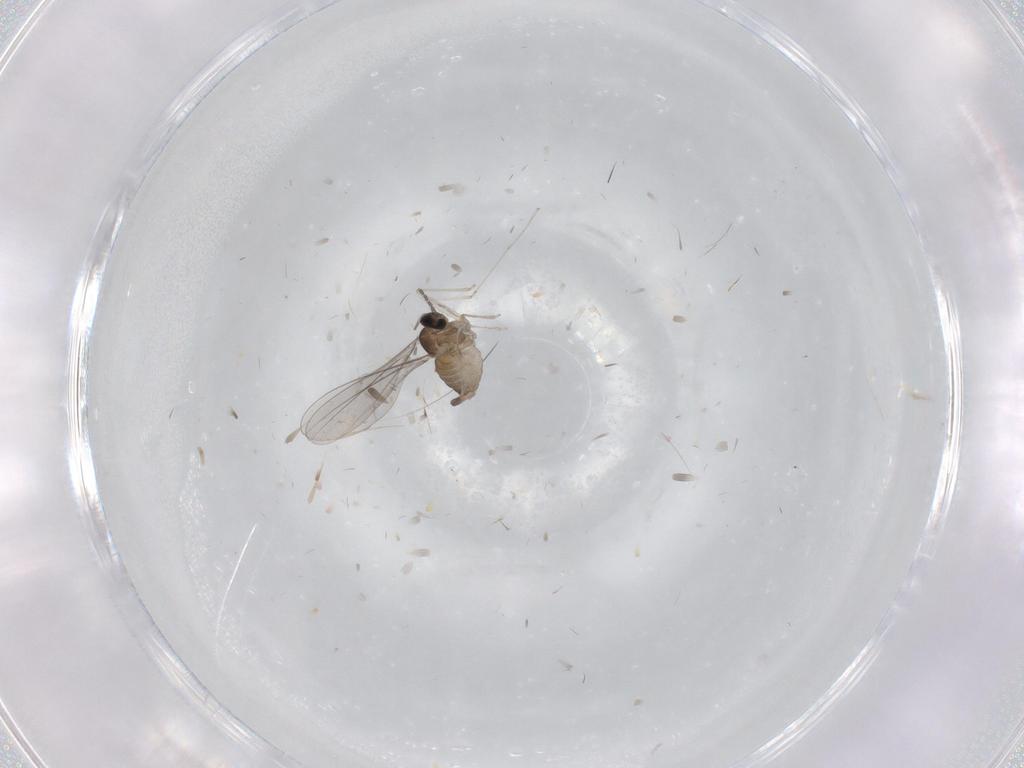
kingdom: Animalia
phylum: Arthropoda
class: Insecta
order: Diptera
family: Cecidomyiidae
